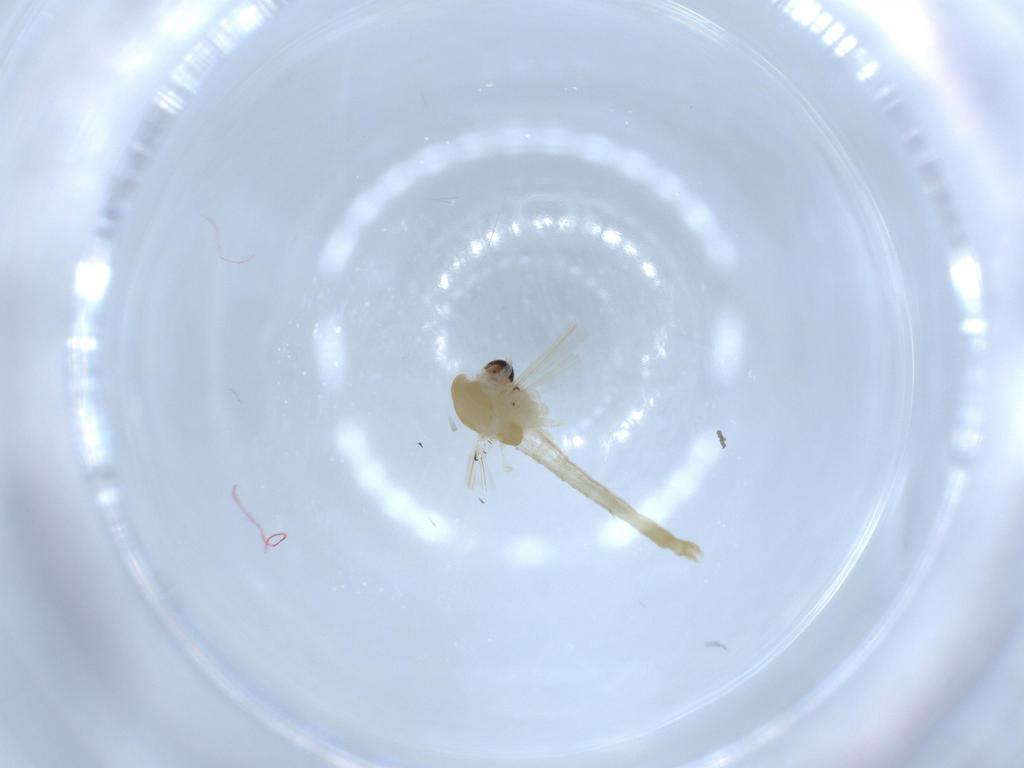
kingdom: Animalia
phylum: Arthropoda
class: Insecta
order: Diptera
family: Chironomidae
